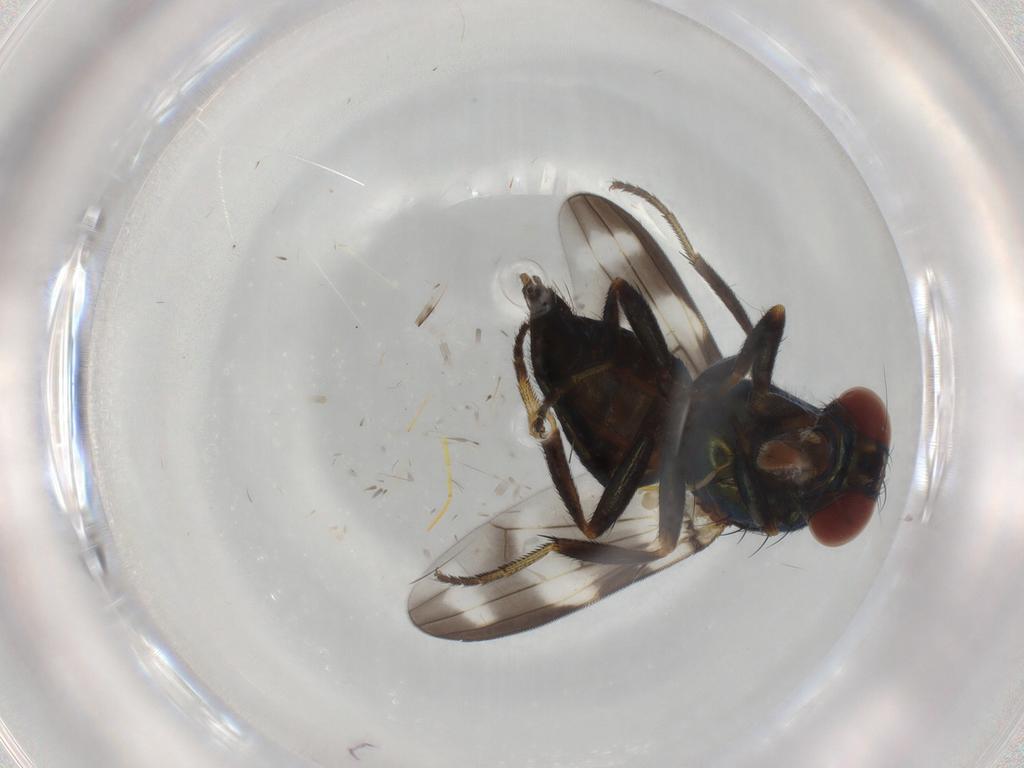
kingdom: Animalia
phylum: Arthropoda
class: Insecta
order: Diptera
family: Ulidiidae
